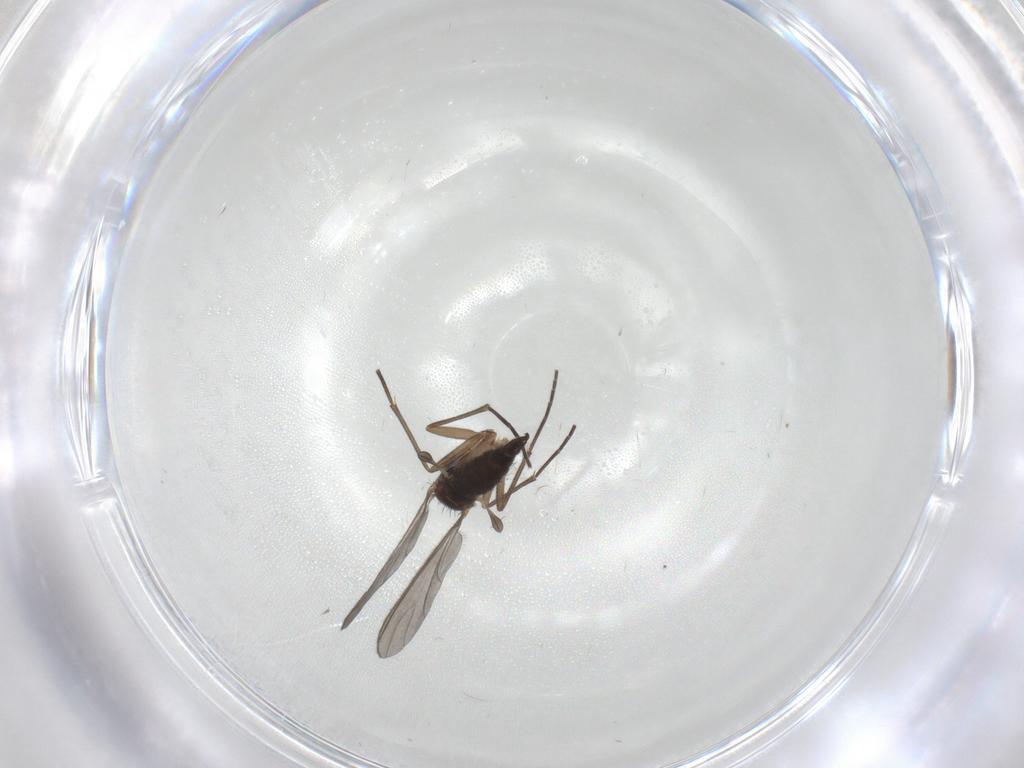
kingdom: Animalia
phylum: Arthropoda
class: Insecta
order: Diptera
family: Sciaridae
